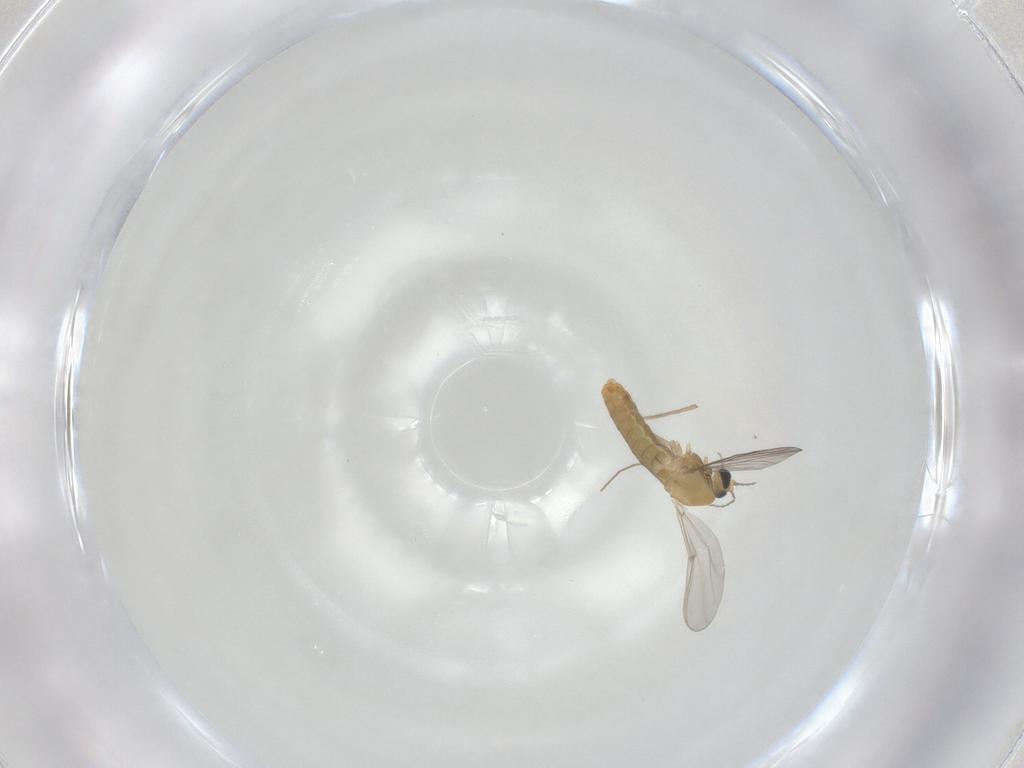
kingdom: Animalia
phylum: Arthropoda
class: Insecta
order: Diptera
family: Chironomidae
